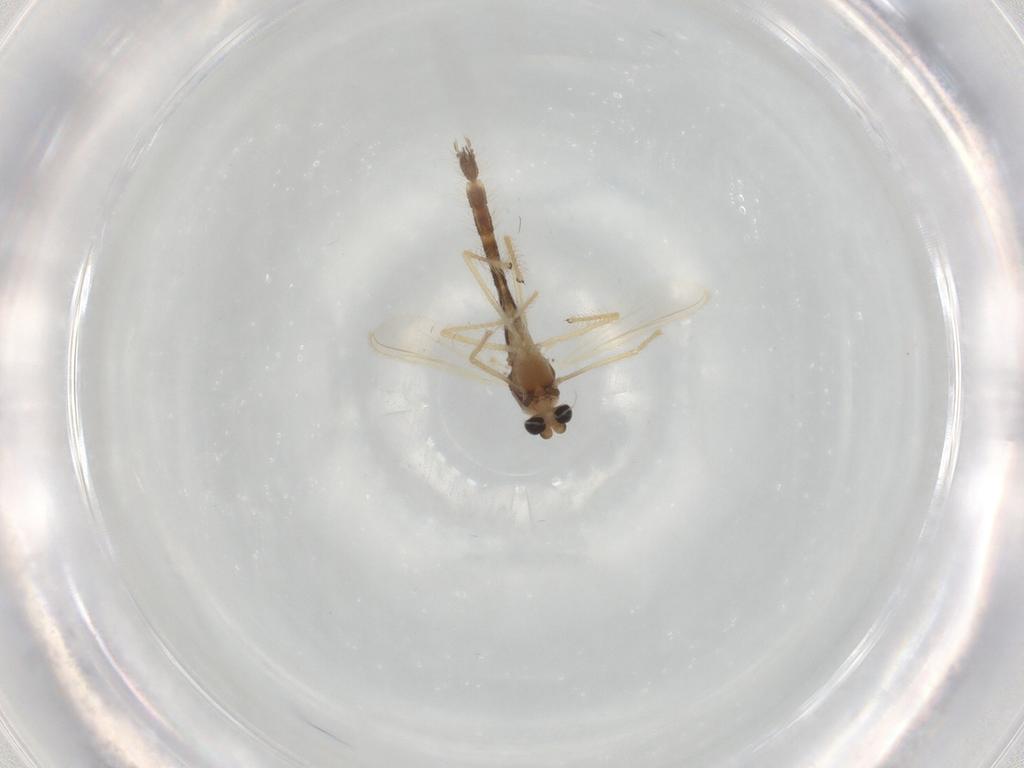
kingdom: Animalia
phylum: Arthropoda
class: Insecta
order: Diptera
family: Chironomidae
